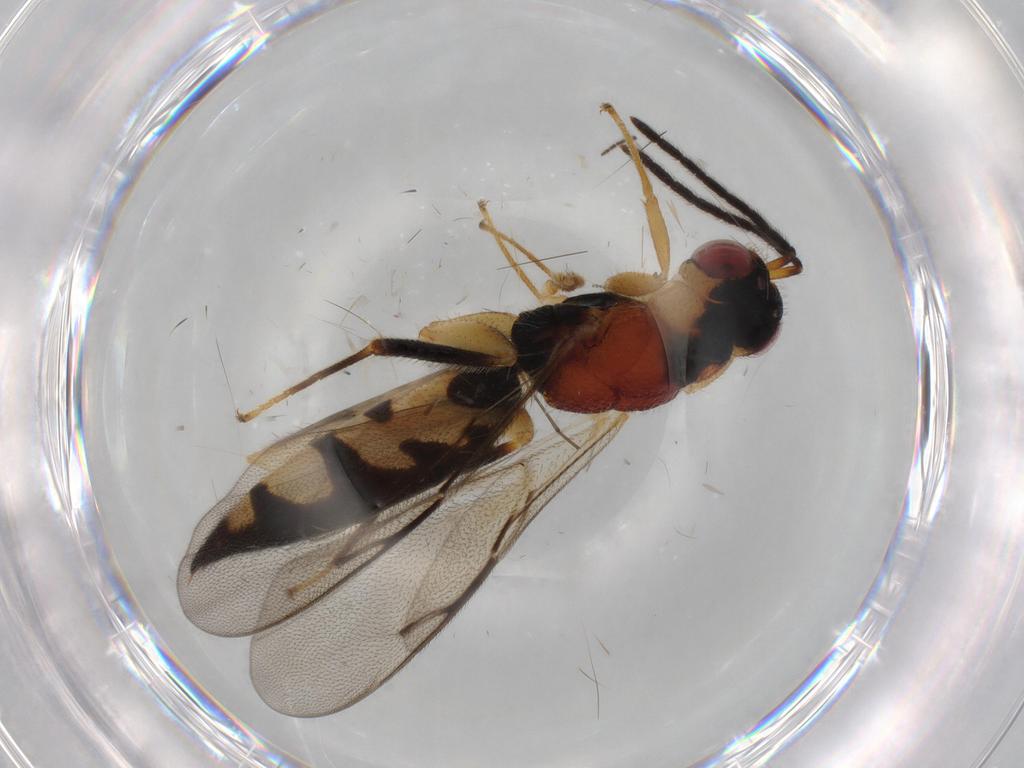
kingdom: Animalia
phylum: Arthropoda
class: Insecta
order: Hymenoptera
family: Eurytomidae
